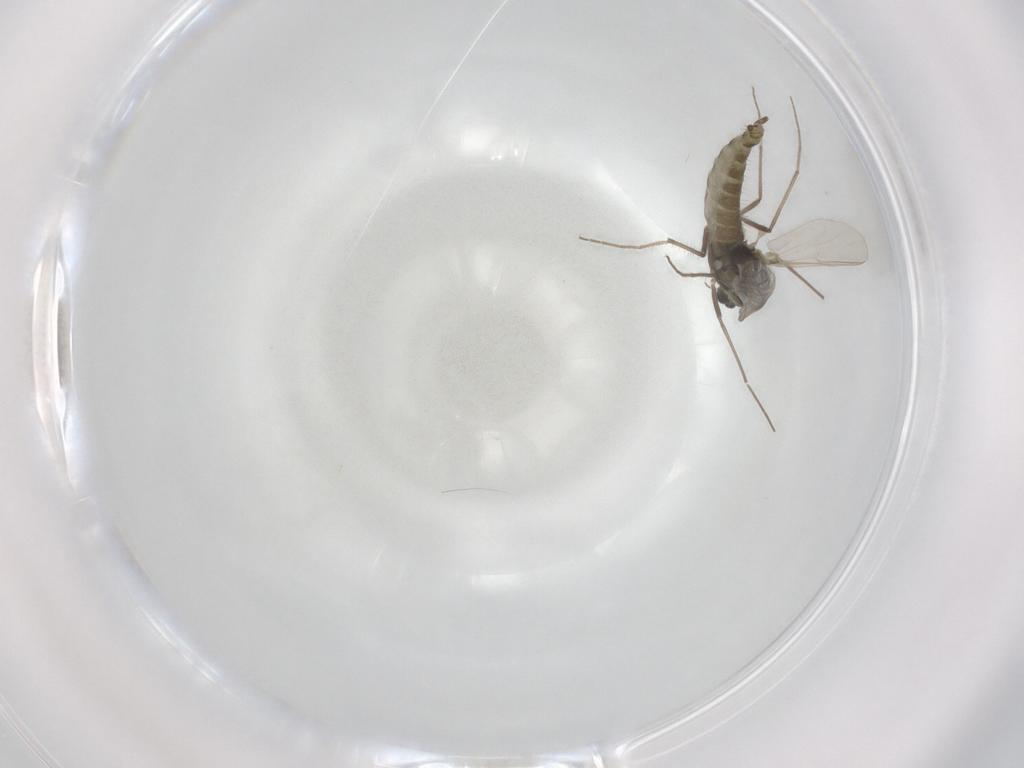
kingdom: Animalia
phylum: Arthropoda
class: Insecta
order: Diptera
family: Chironomidae
